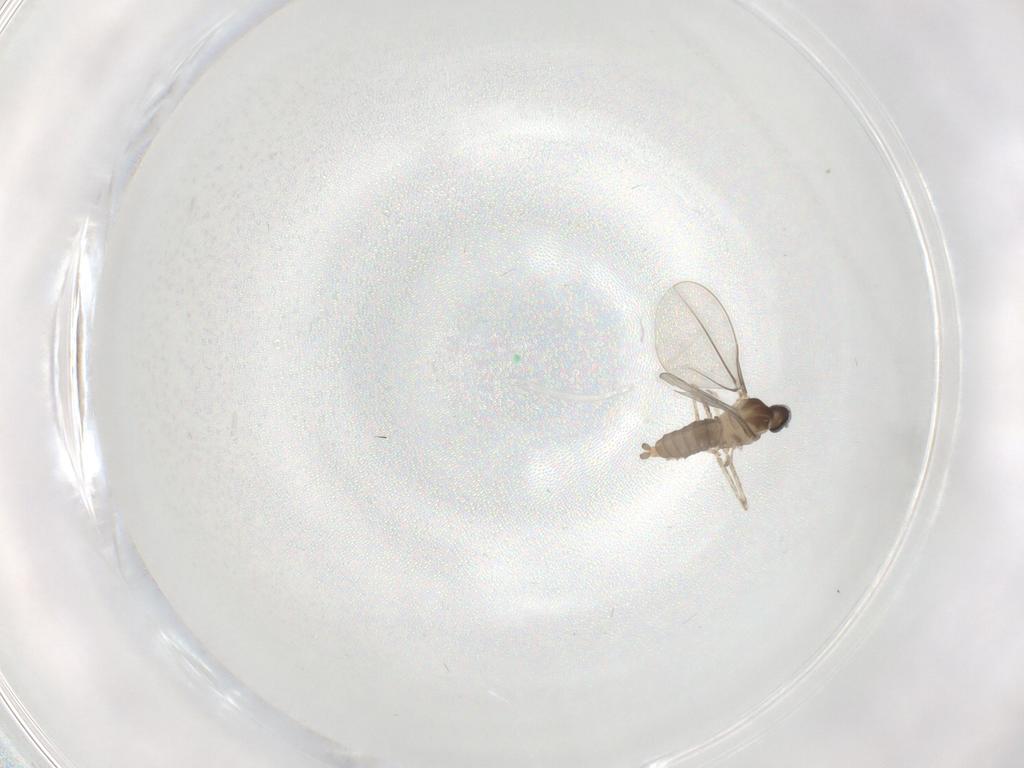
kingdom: Animalia
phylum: Arthropoda
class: Insecta
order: Diptera
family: Cecidomyiidae
